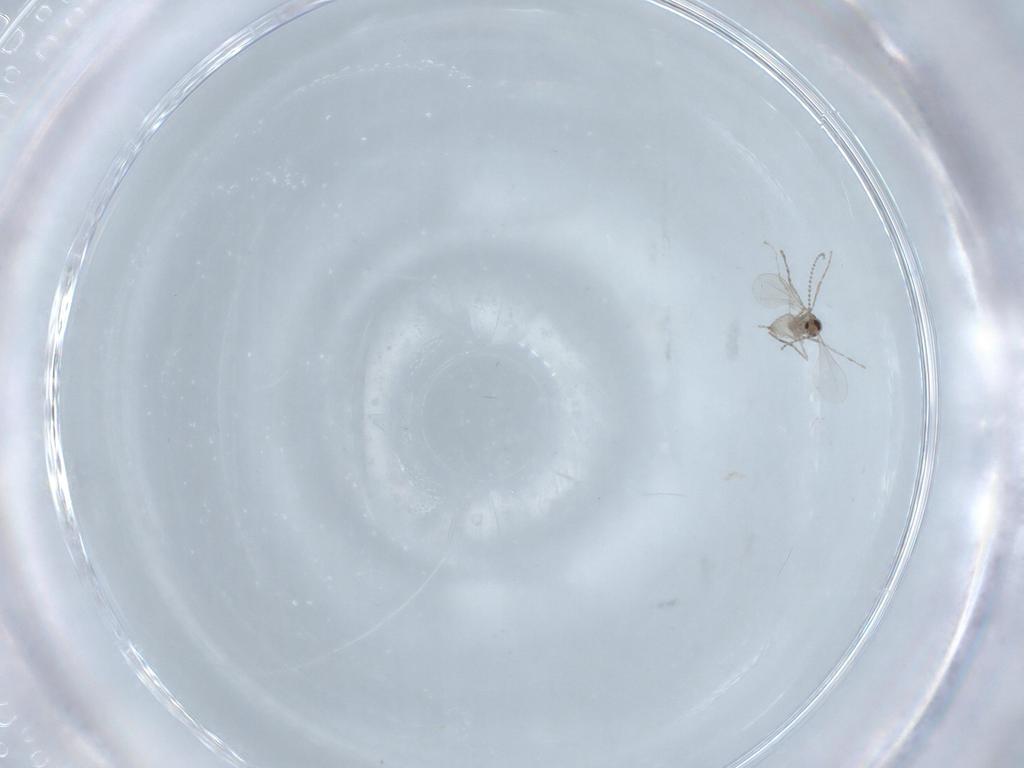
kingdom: Animalia
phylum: Arthropoda
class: Insecta
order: Diptera
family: Cecidomyiidae
